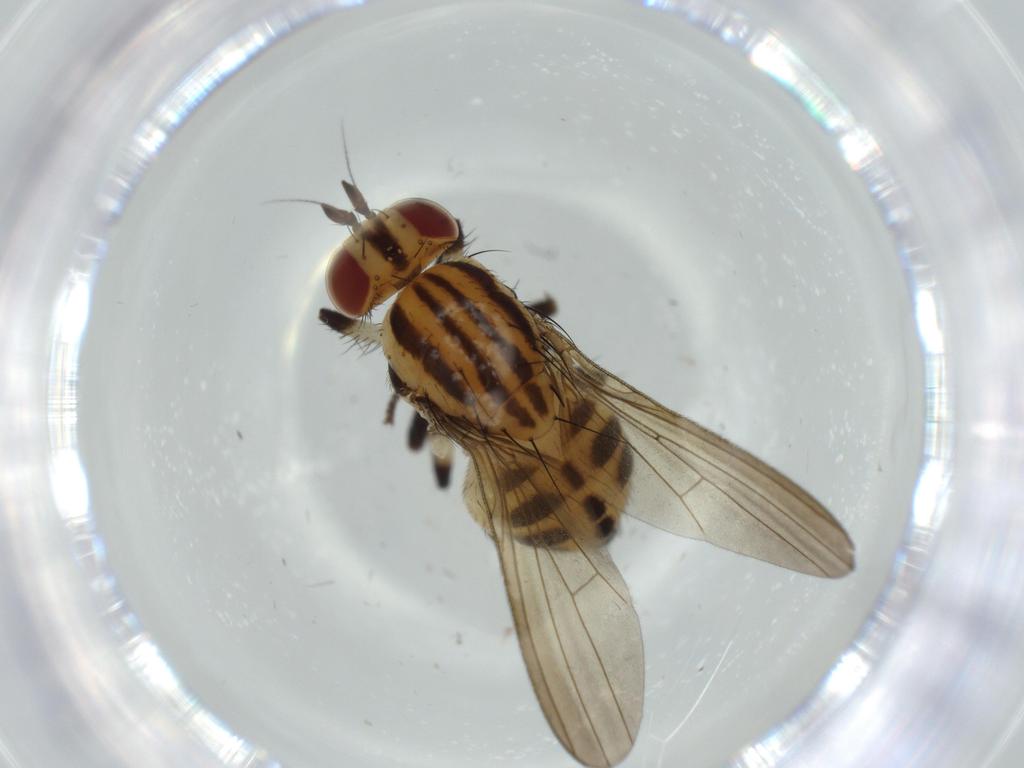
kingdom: Animalia
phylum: Arthropoda
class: Insecta
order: Diptera
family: Lauxaniidae
